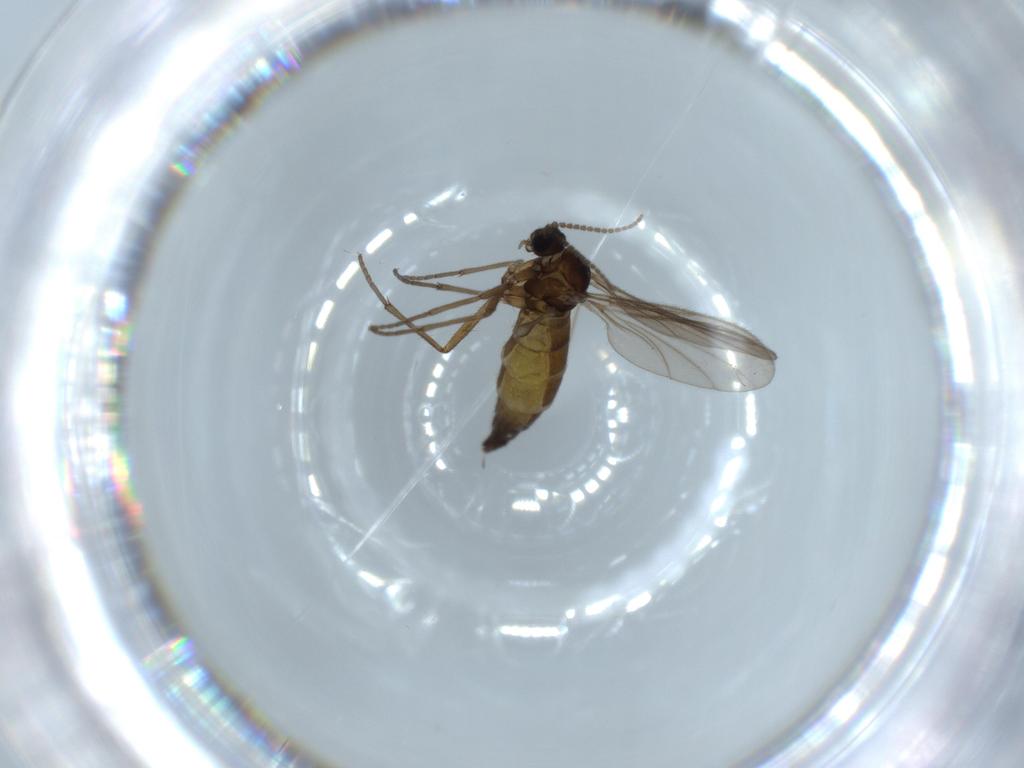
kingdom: Animalia
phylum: Arthropoda
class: Insecta
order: Diptera
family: Sciaridae
